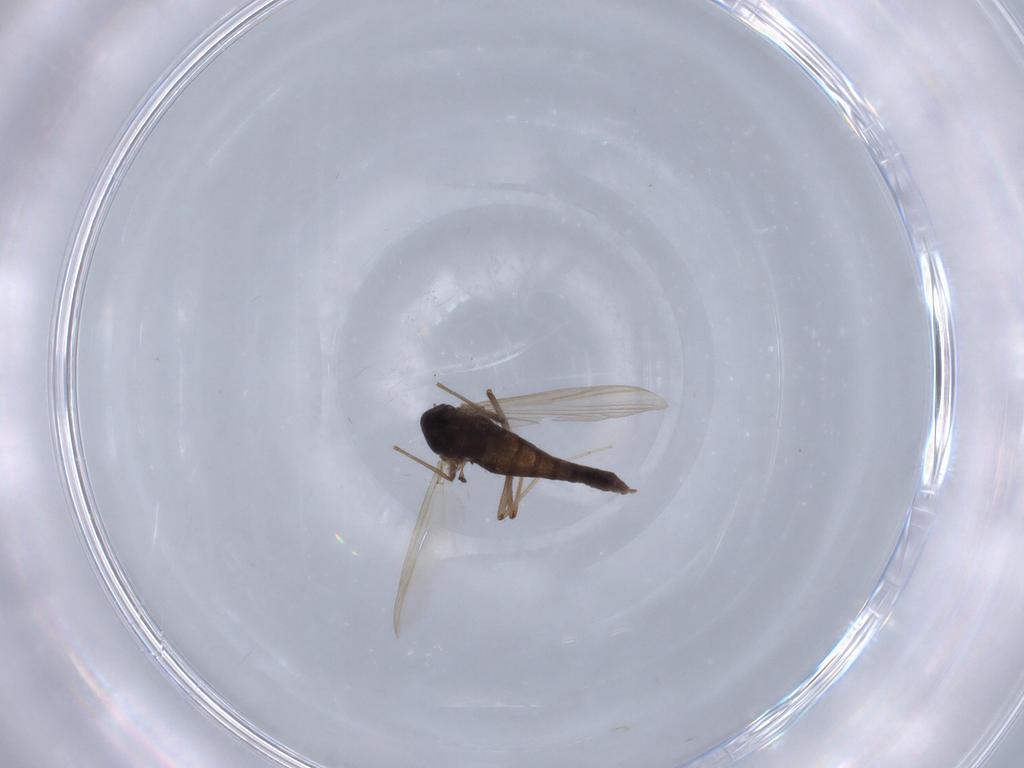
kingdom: Animalia
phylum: Arthropoda
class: Insecta
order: Diptera
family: Chironomidae
